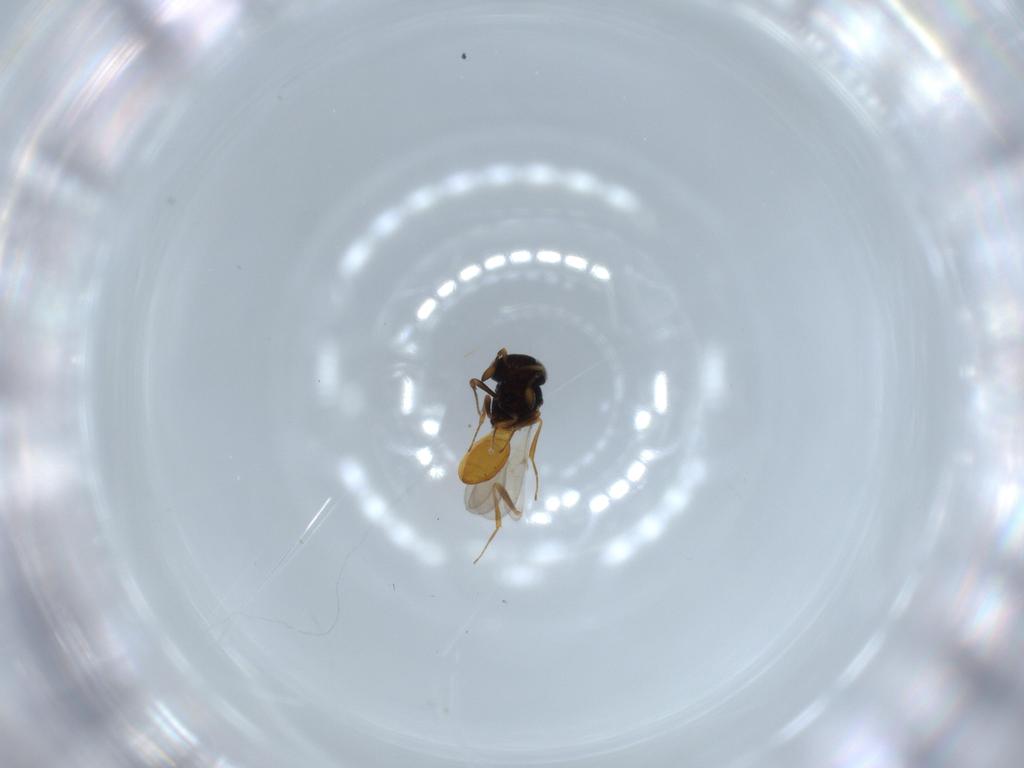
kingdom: Animalia
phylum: Arthropoda
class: Insecta
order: Hymenoptera
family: Scelionidae
